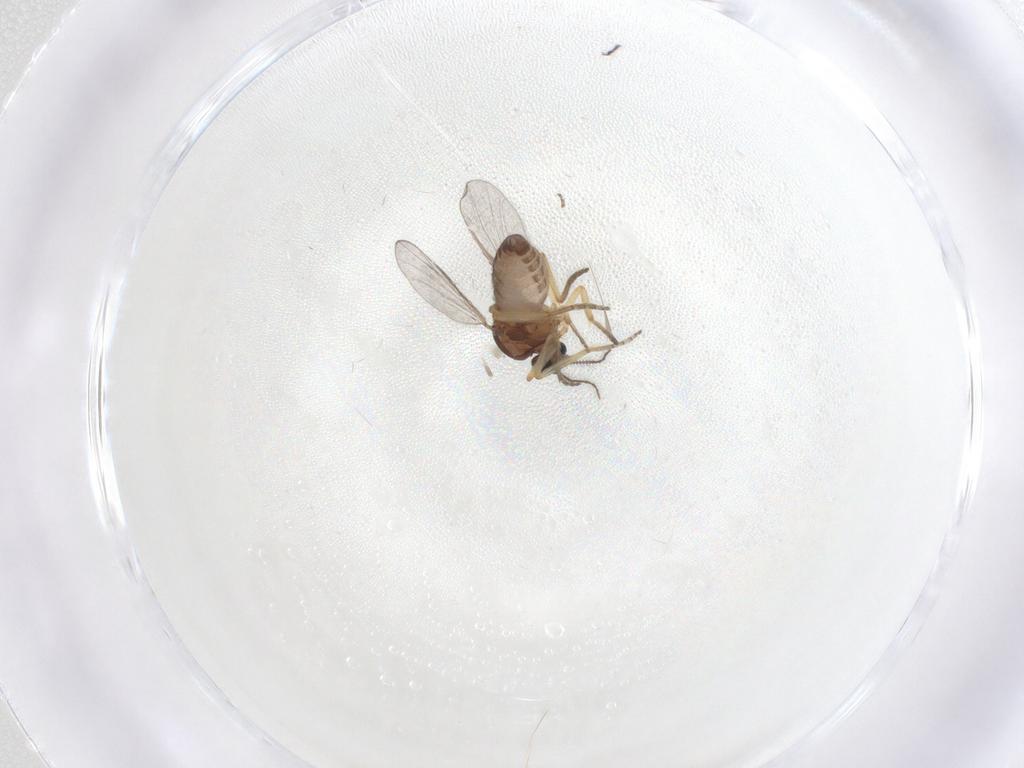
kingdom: Animalia
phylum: Arthropoda
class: Insecta
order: Diptera
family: Ceratopogonidae
